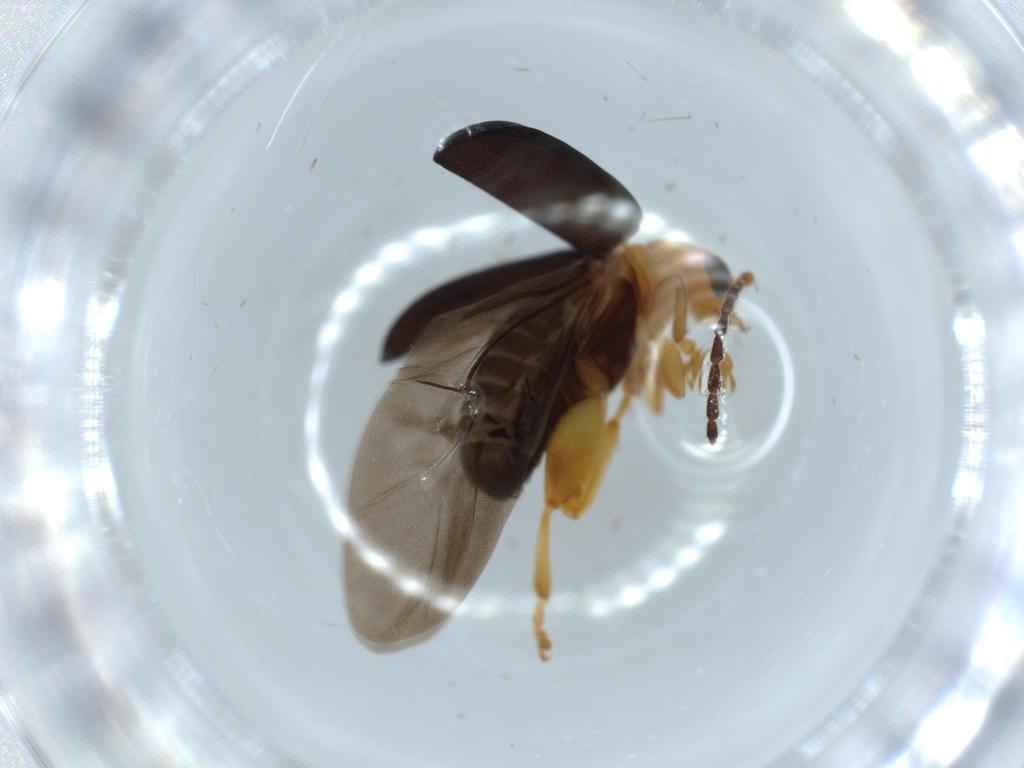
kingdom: Animalia
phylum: Arthropoda
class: Insecta
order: Coleoptera
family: Chrysomelidae
